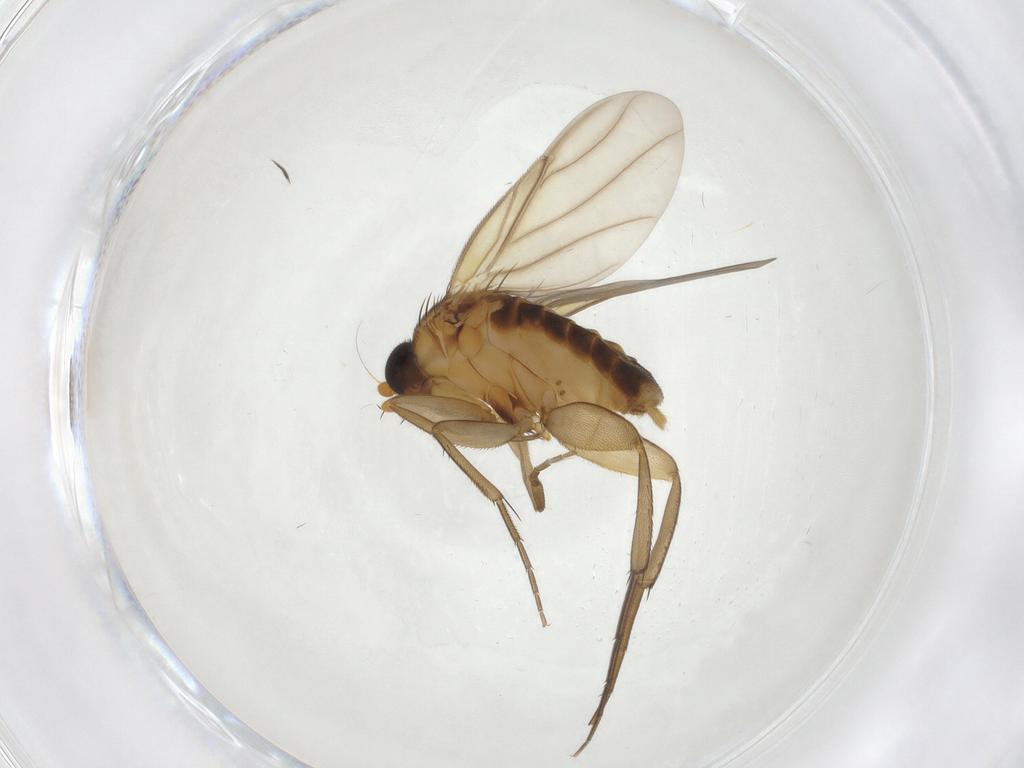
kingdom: Animalia
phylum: Arthropoda
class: Insecta
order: Diptera
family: Psychodidae
